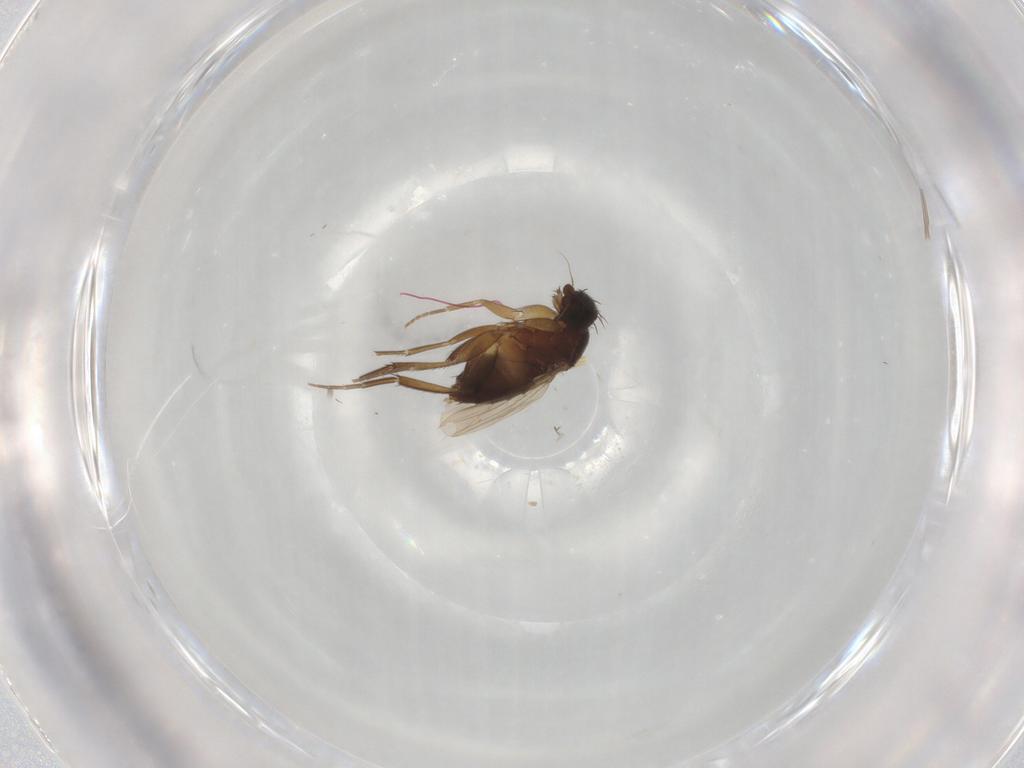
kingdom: Animalia
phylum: Arthropoda
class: Insecta
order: Diptera
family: Phoridae
